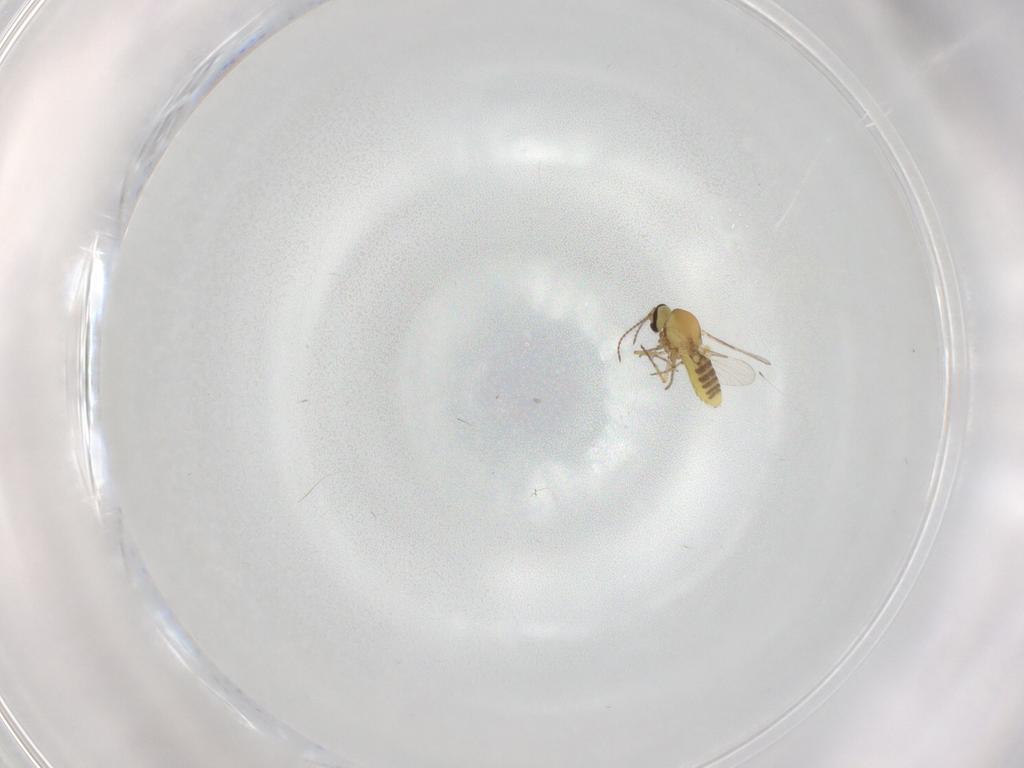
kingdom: Animalia
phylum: Arthropoda
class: Insecta
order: Diptera
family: Ceratopogonidae
